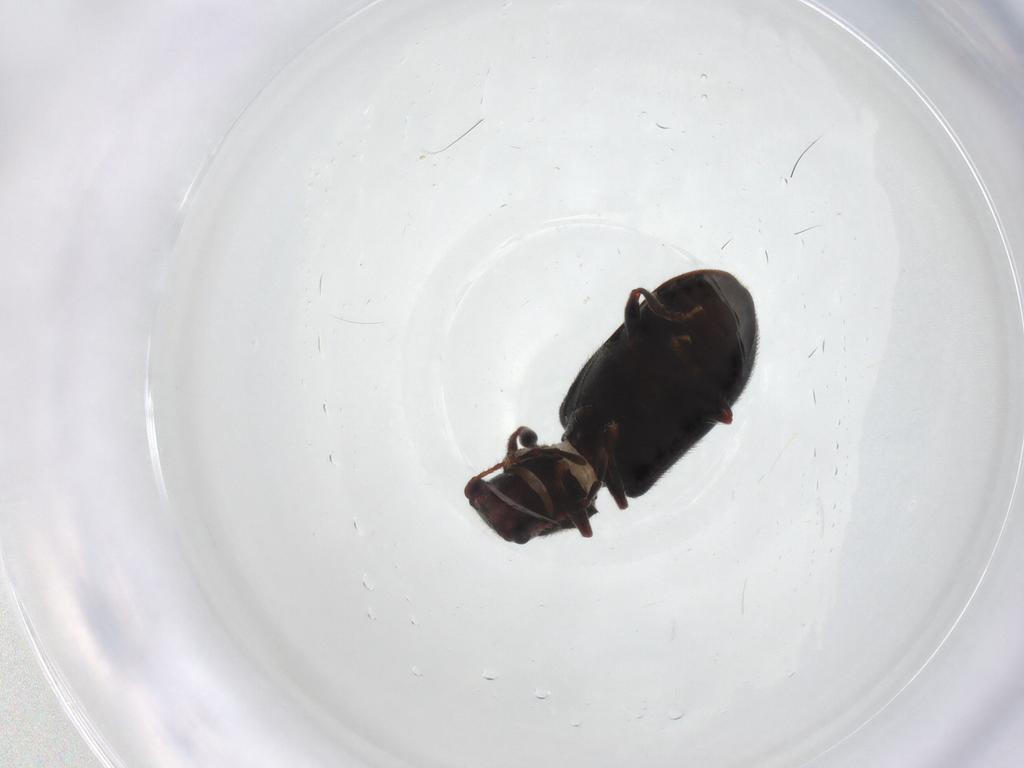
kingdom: Animalia
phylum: Arthropoda
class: Insecta
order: Coleoptera
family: Ptinidae
